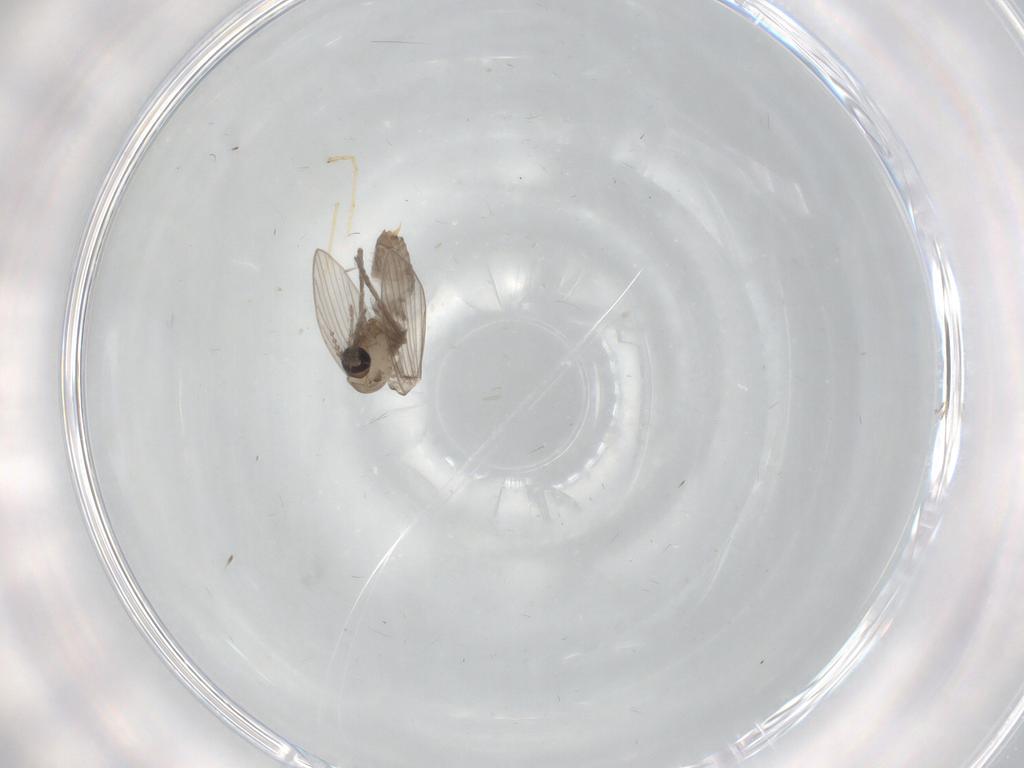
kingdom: Animalia
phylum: Arthropoda
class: Insecta
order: Diptera
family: Psychodidae
